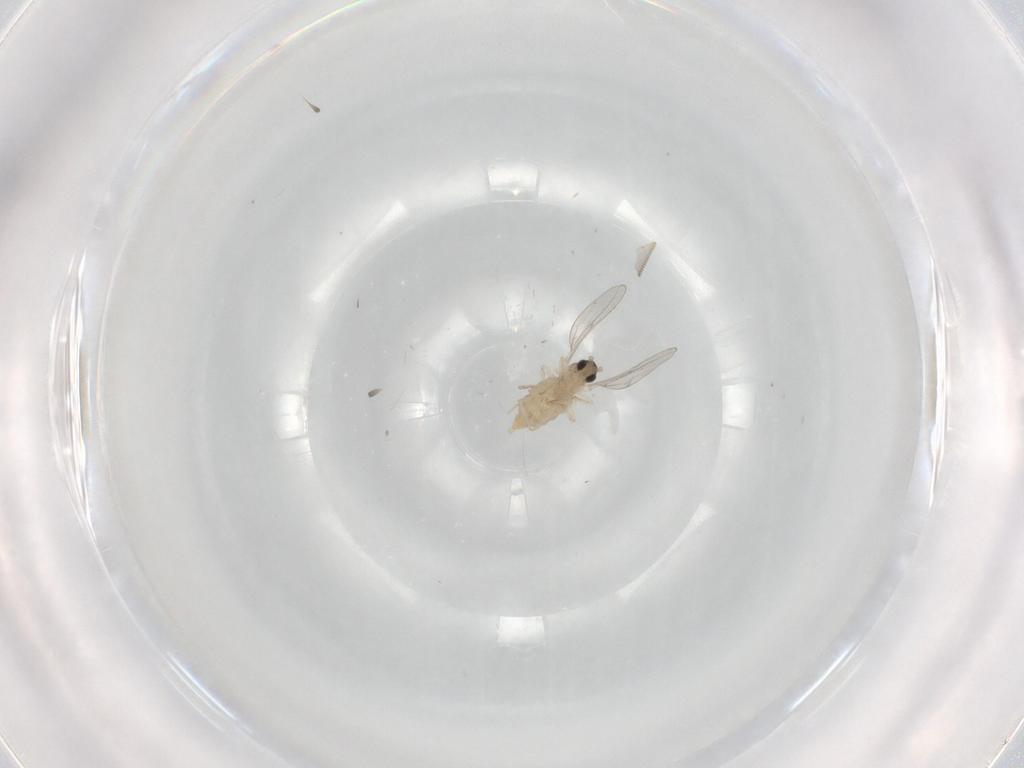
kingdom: Animalia
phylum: Arthropoda
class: Insecta
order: Diptera
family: Cecidomyiidae
